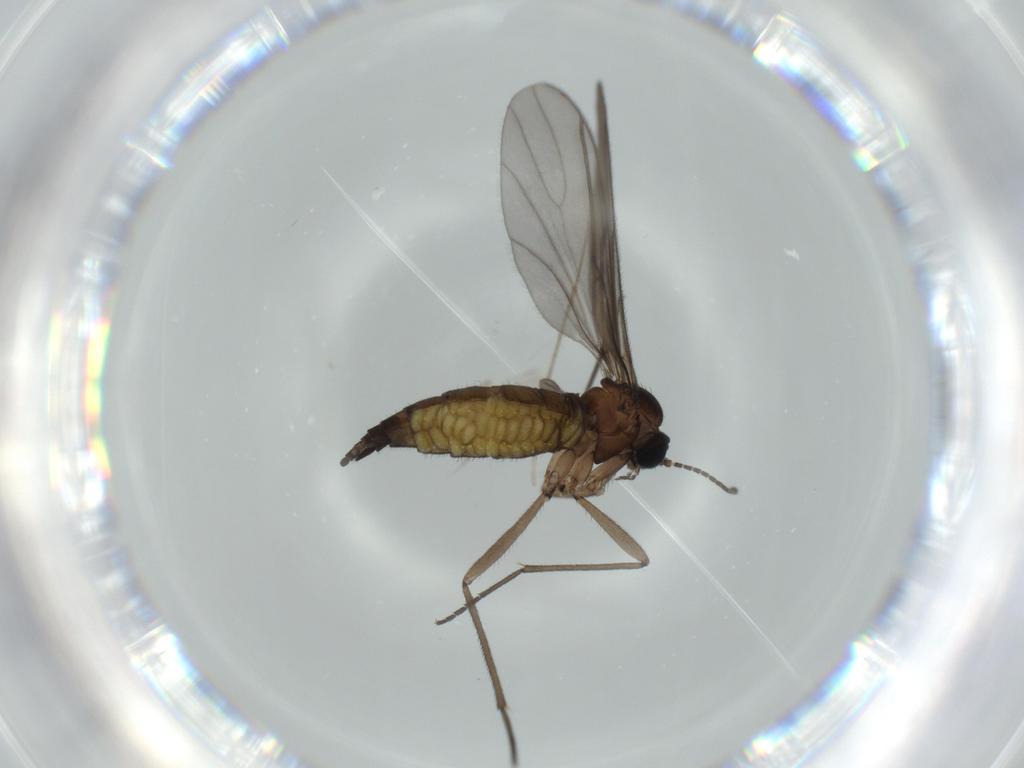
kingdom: Animalia
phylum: Arthropoda
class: Insecta
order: Diptera
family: Sciaridae
